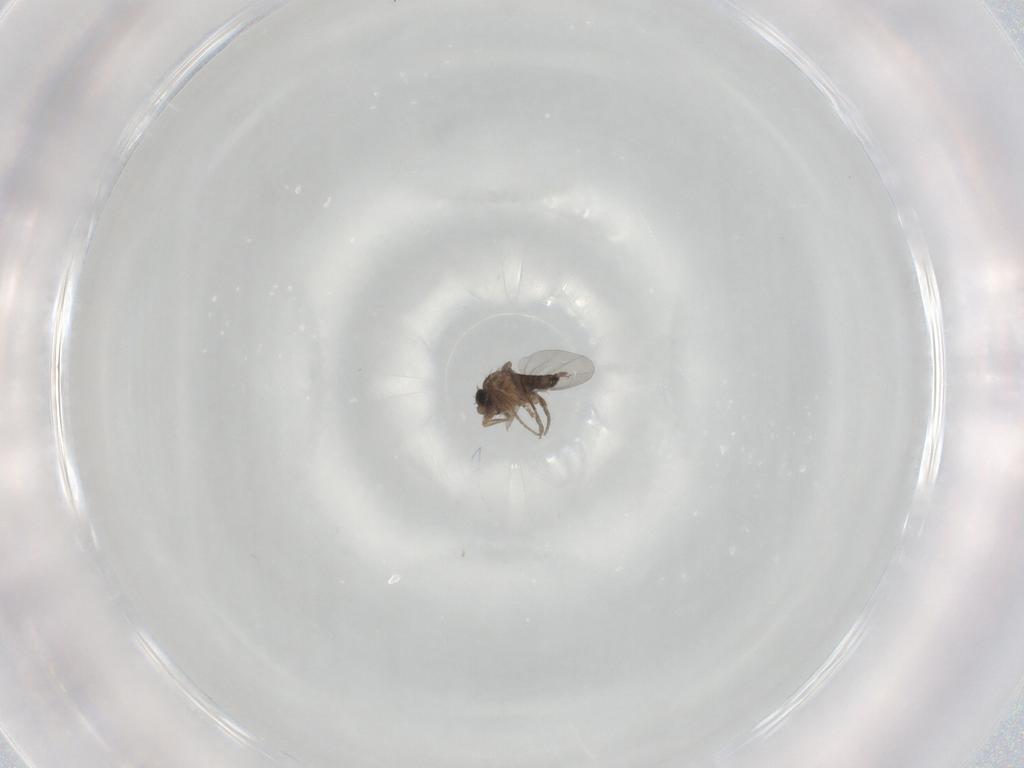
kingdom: Animalia
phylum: Arthropoda
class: Insecta
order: Diptera
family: Phoridae
